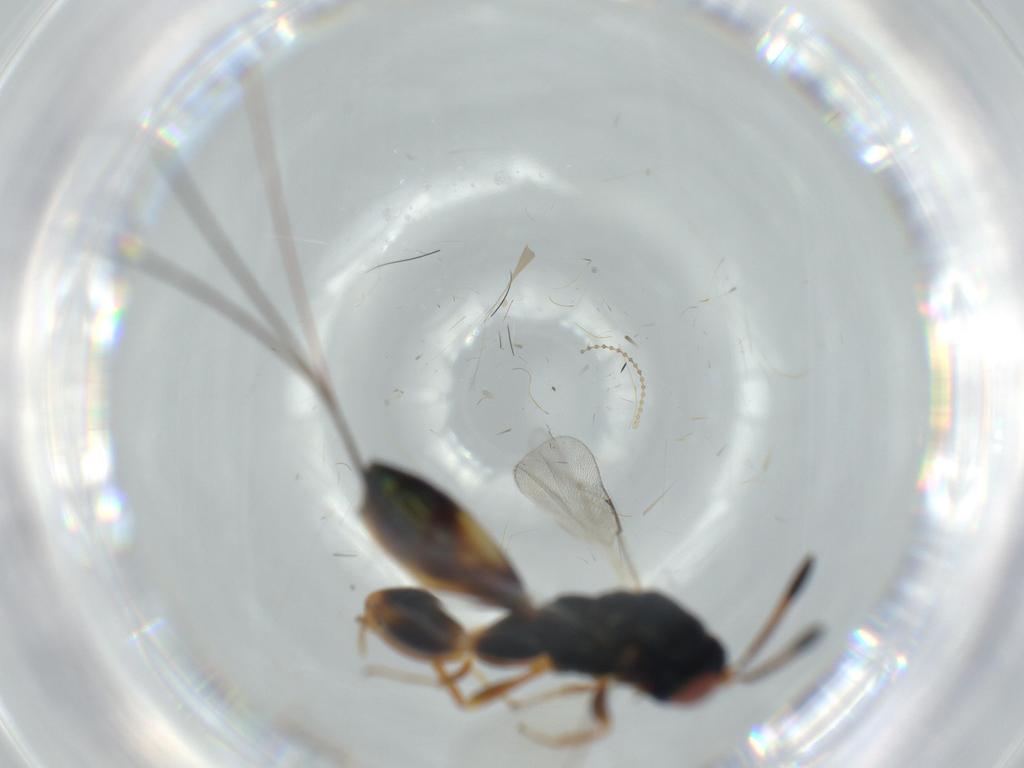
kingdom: Animalia
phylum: Arthropoda
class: Insecta
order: Hymenoptera
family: Torymidae
